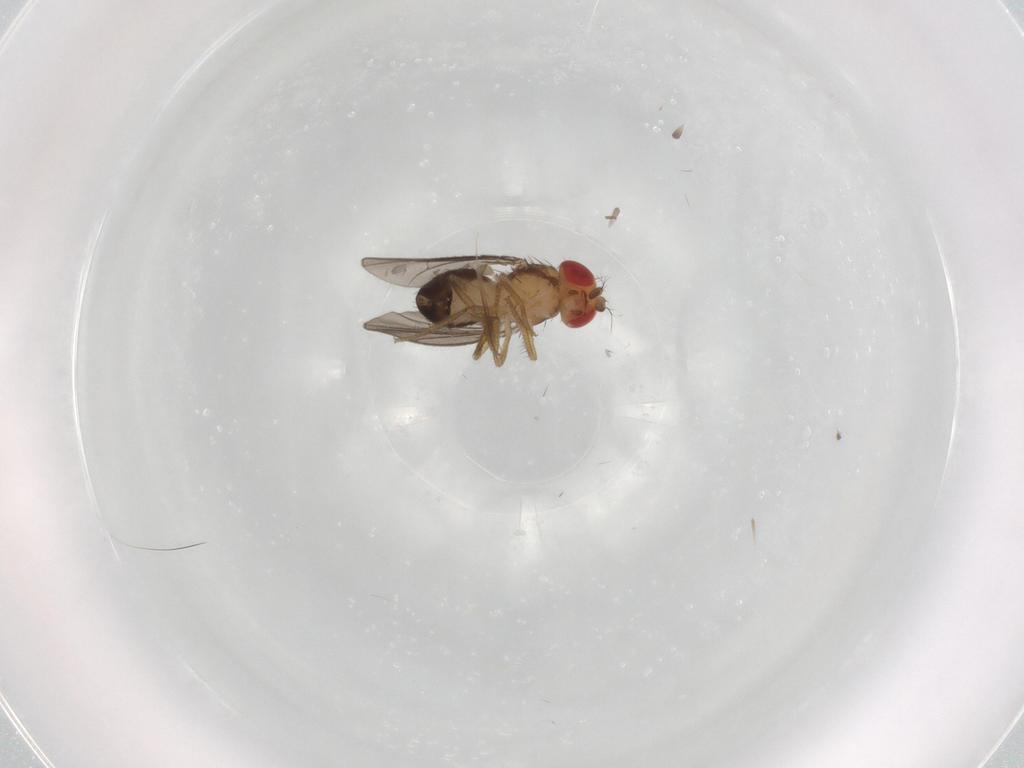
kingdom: Animalia
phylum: Arthropoda
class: Insecta
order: Diptera
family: Drosophilidae
